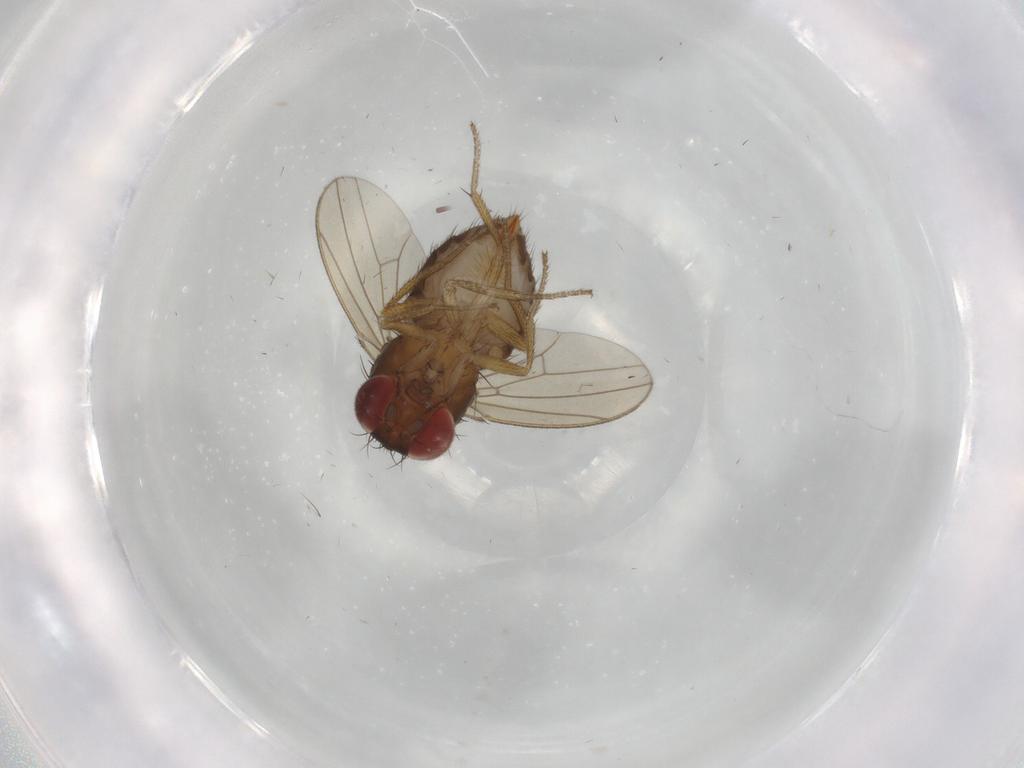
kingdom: Animalia
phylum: Arthropoda
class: Insecta
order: Diptera
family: Drosophilidae
